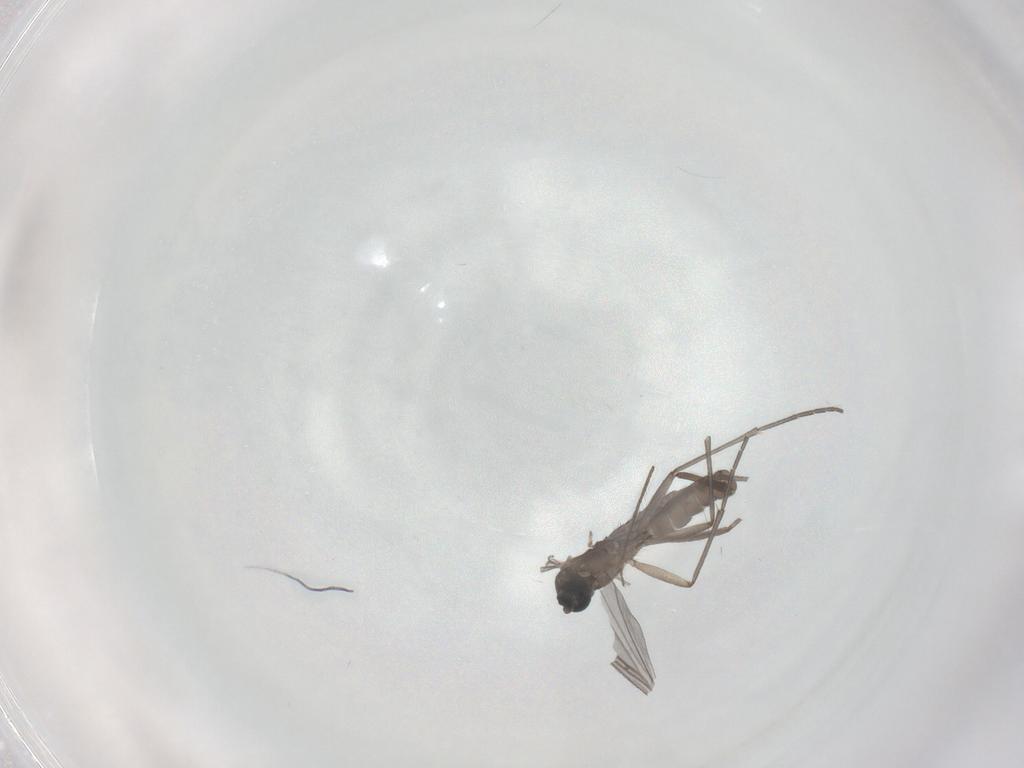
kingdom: Animalia
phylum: Arthropoda
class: Insecta
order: Diptera
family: Sciaridae
